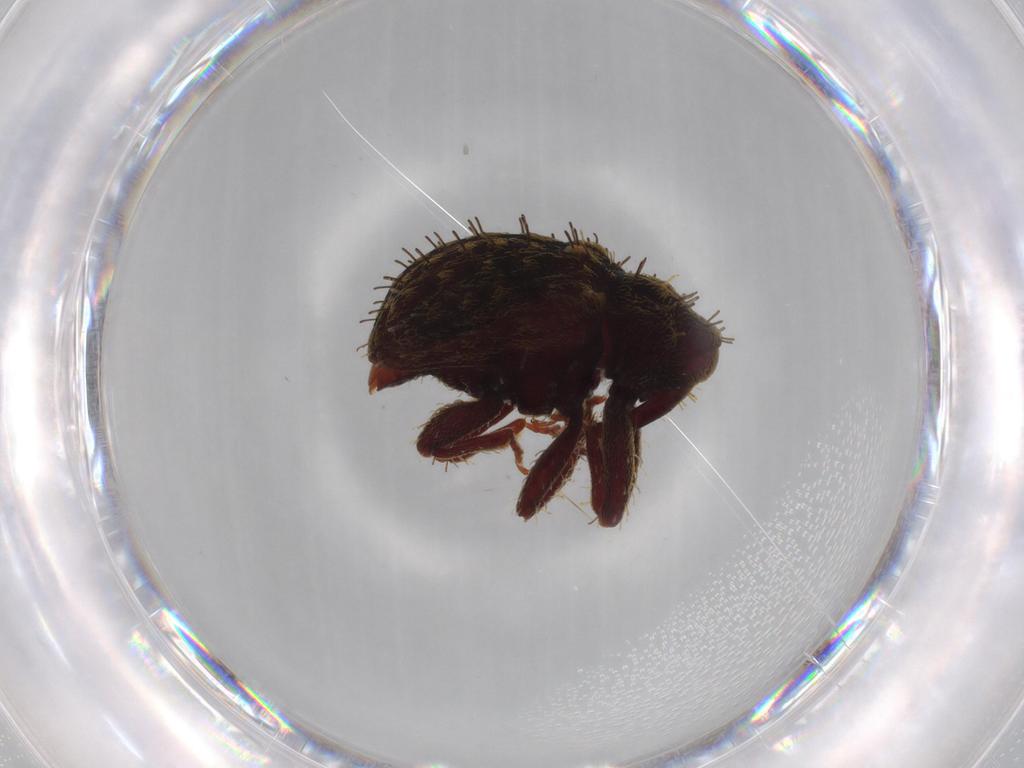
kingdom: Animalia
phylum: Arthropoda
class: Insecta
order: Coleoptera
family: Curculionidae
